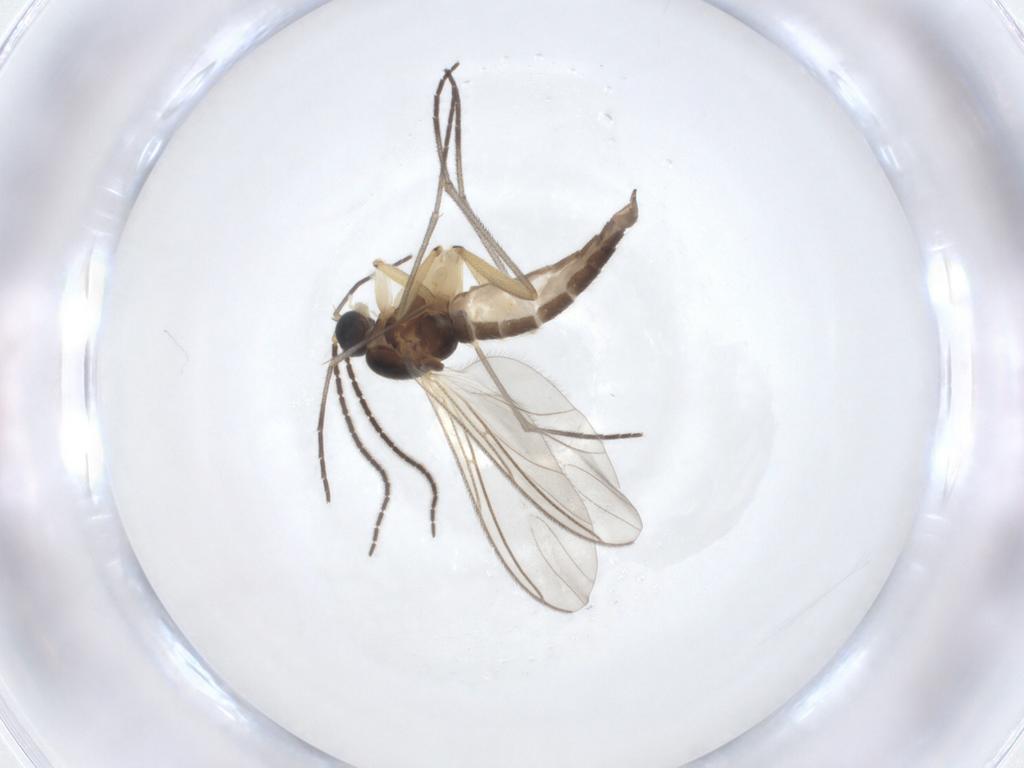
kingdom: Animalia
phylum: Arthropoda
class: Insecta
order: Diptera
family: Sciaridae
